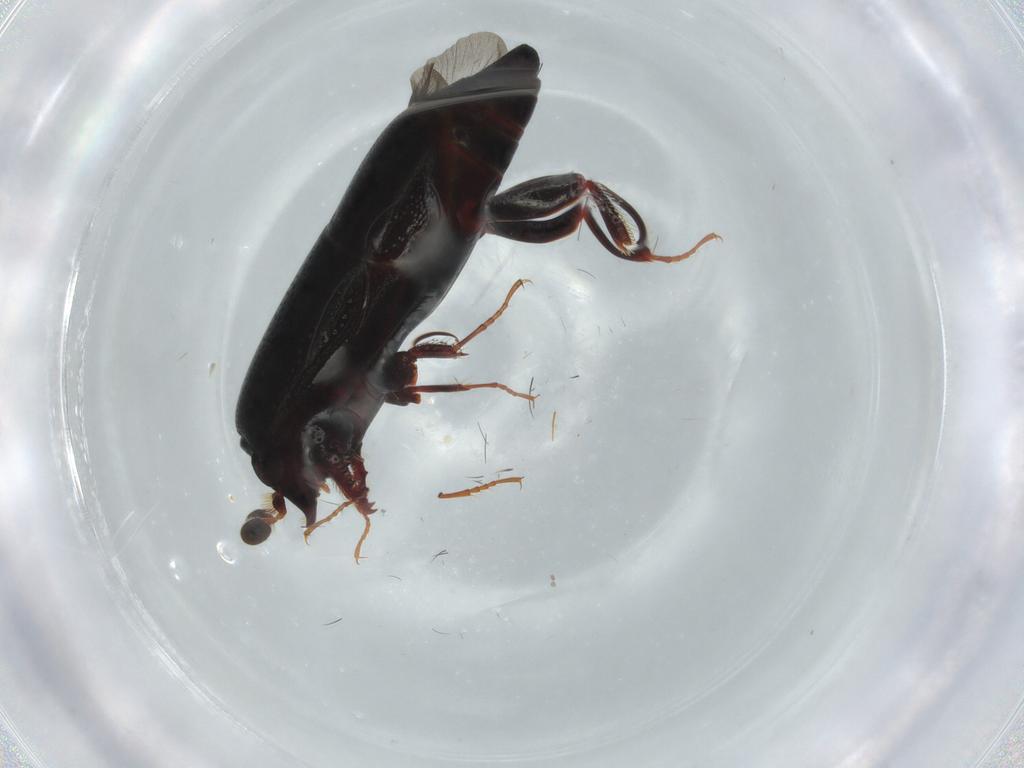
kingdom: Animalia
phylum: Arthropoda
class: Insecta
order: Coleoptera
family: Histeridae
